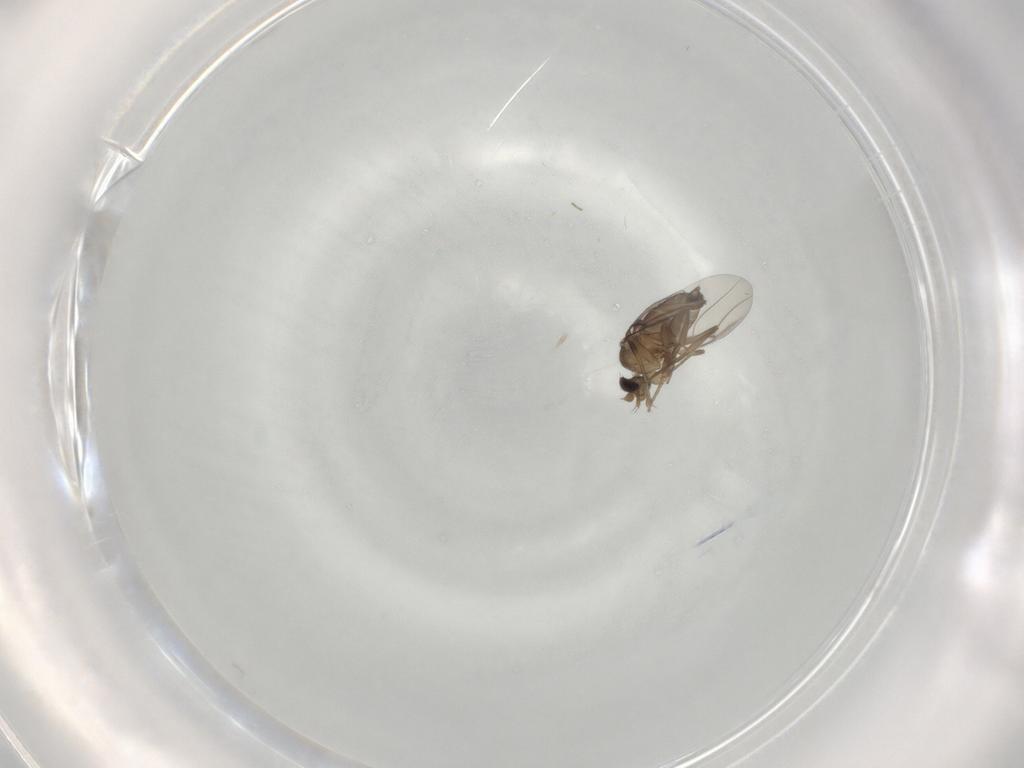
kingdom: Animalia
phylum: Arthropoda
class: Insecta
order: Diptera
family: Phoridae
